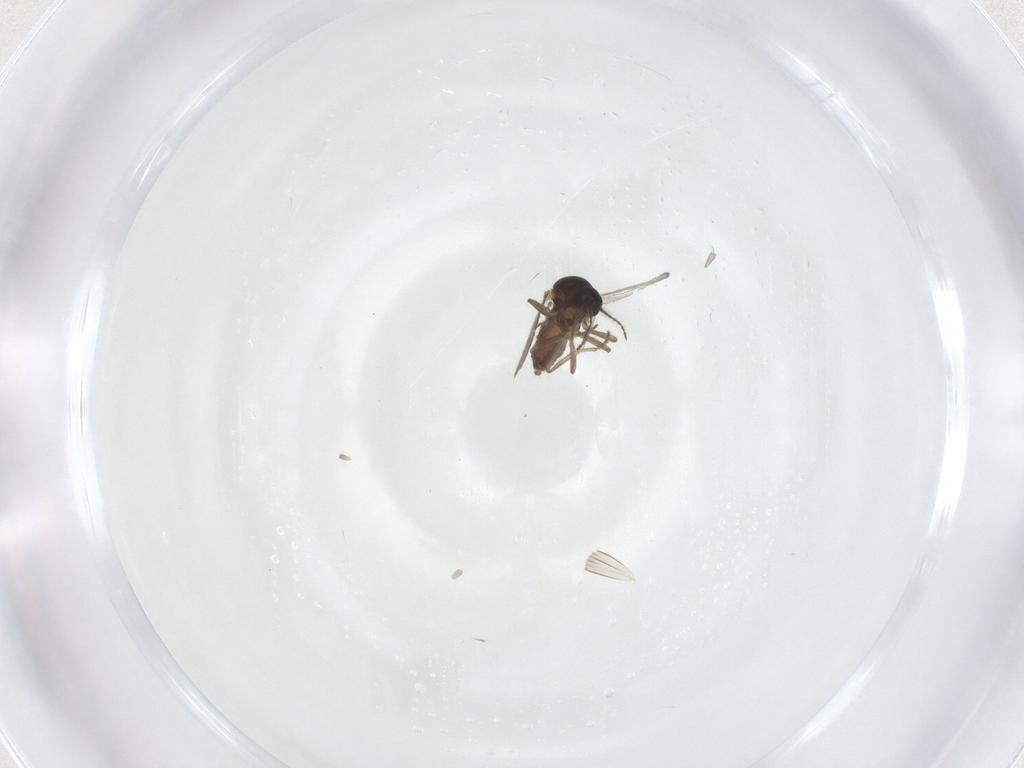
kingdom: Animalia
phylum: Arthropoda
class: Insecta
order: Diptera
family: Ceratopogonidae
